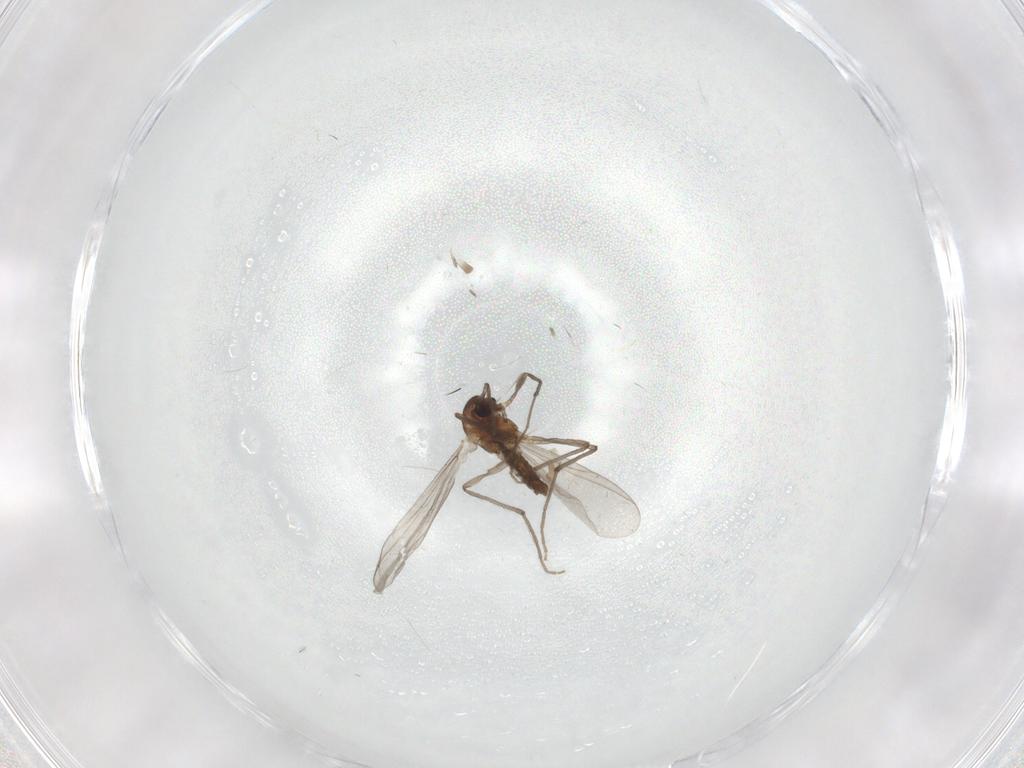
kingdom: Animalia
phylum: Arthropoda
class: Insecta
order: Diptera
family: Chironomidae
